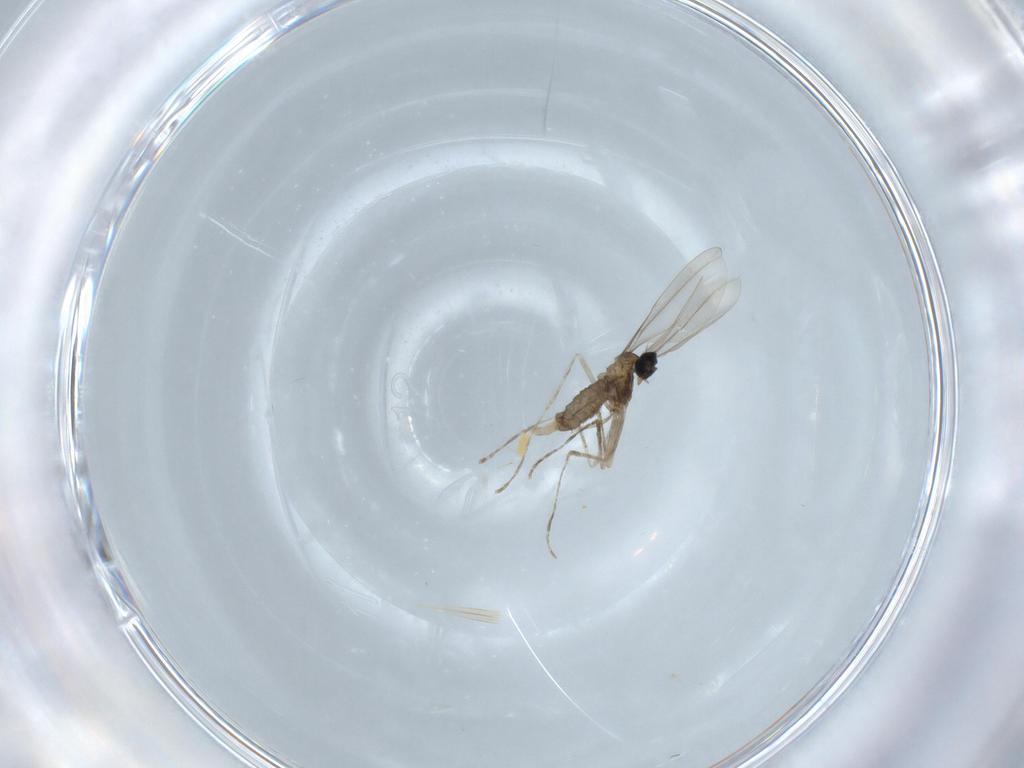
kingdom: Animalia
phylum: Arthropoda
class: Insecta
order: Diptera
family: Cecidomyiidae
